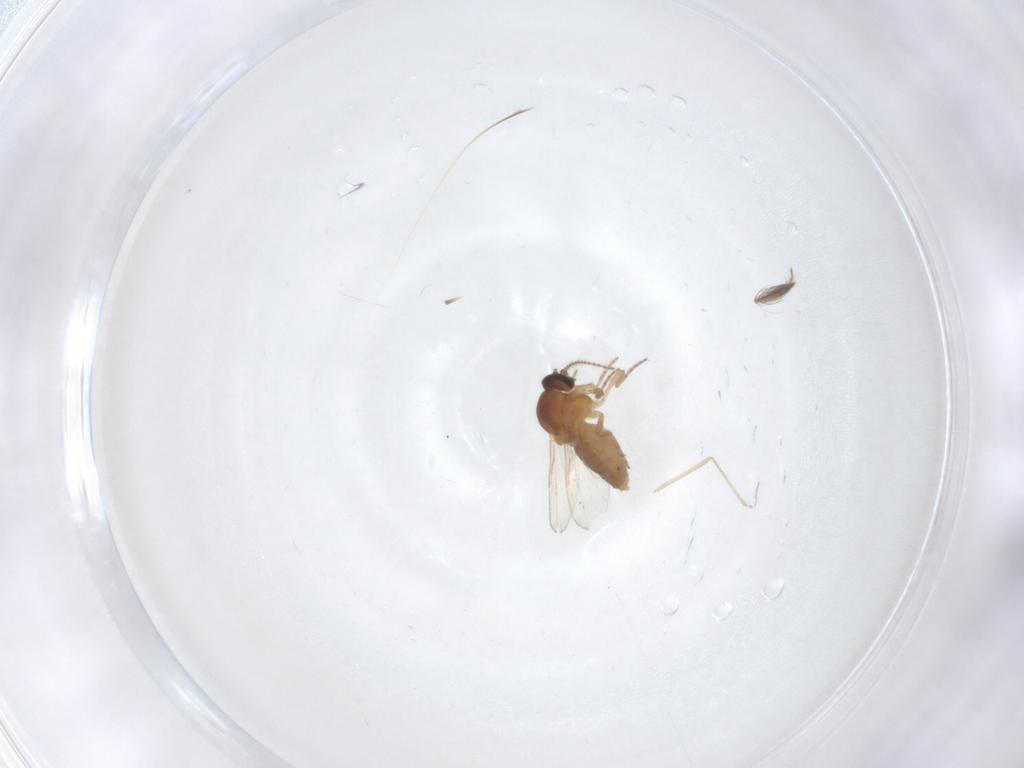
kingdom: Animalia
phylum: Arthropoda
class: Insecta
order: Diptera
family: Ceratopogonidae
